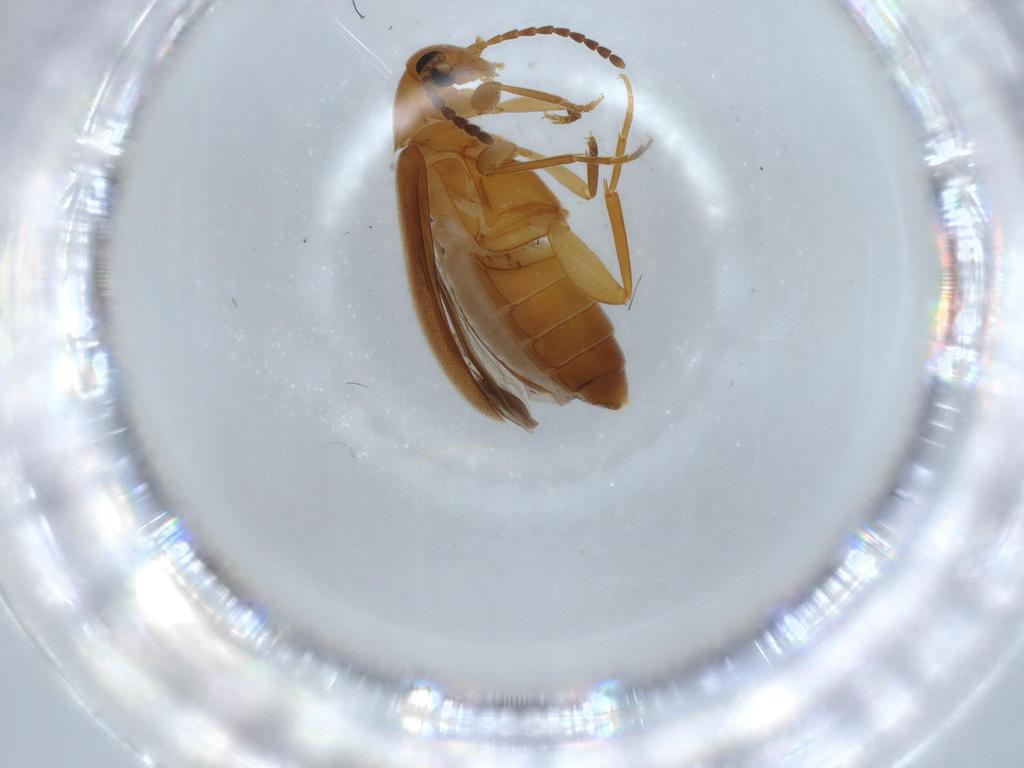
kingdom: Animalia
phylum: Arthropoda
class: Insecta
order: Coleoptera
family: Scraptiidae
